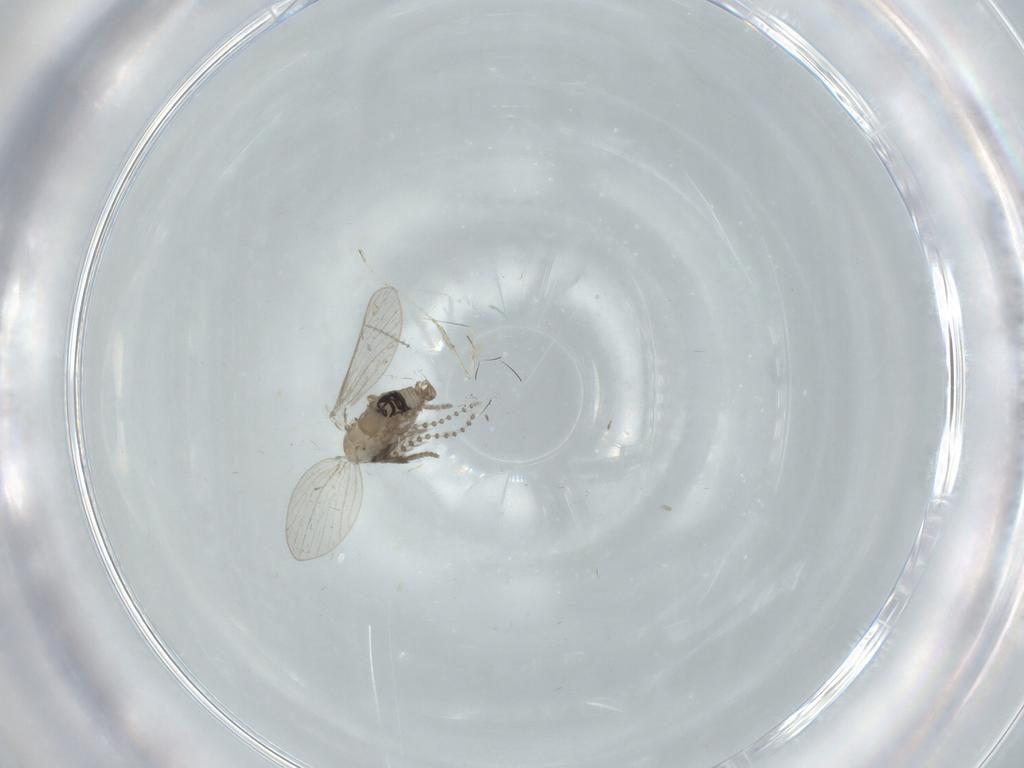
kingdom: Animalia
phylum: Arthropoda
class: Insecta
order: Diptera
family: Psychodidae
